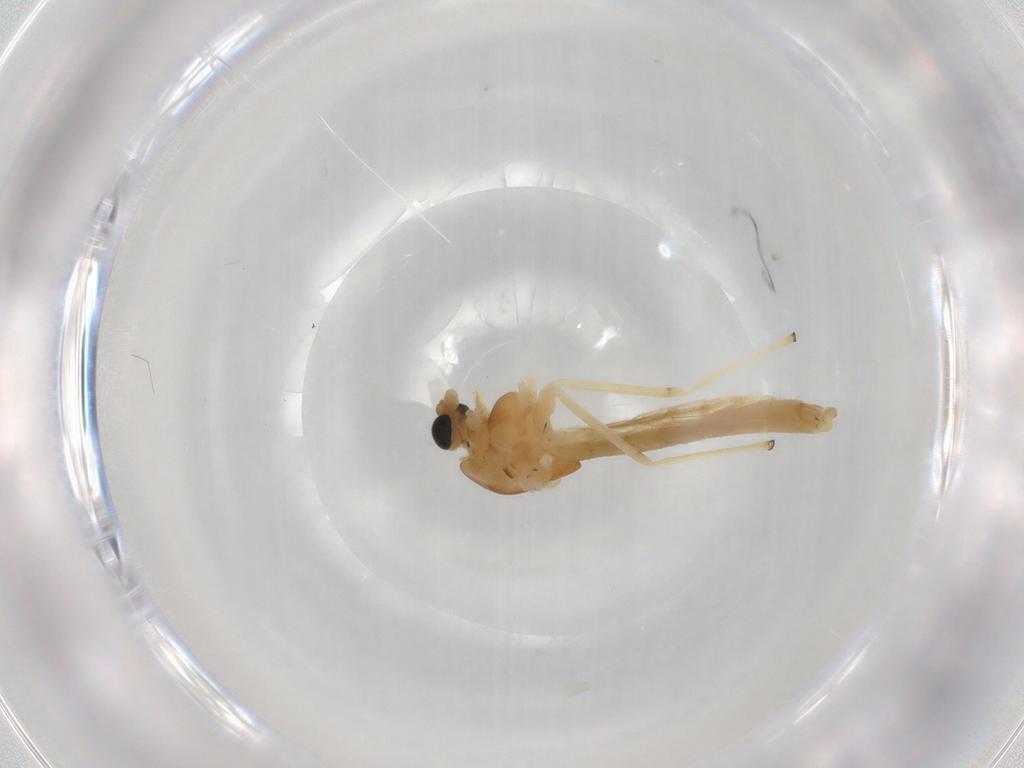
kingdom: Animalia
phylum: Arthropoda
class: Insecta
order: Diptera
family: Chironomidae
